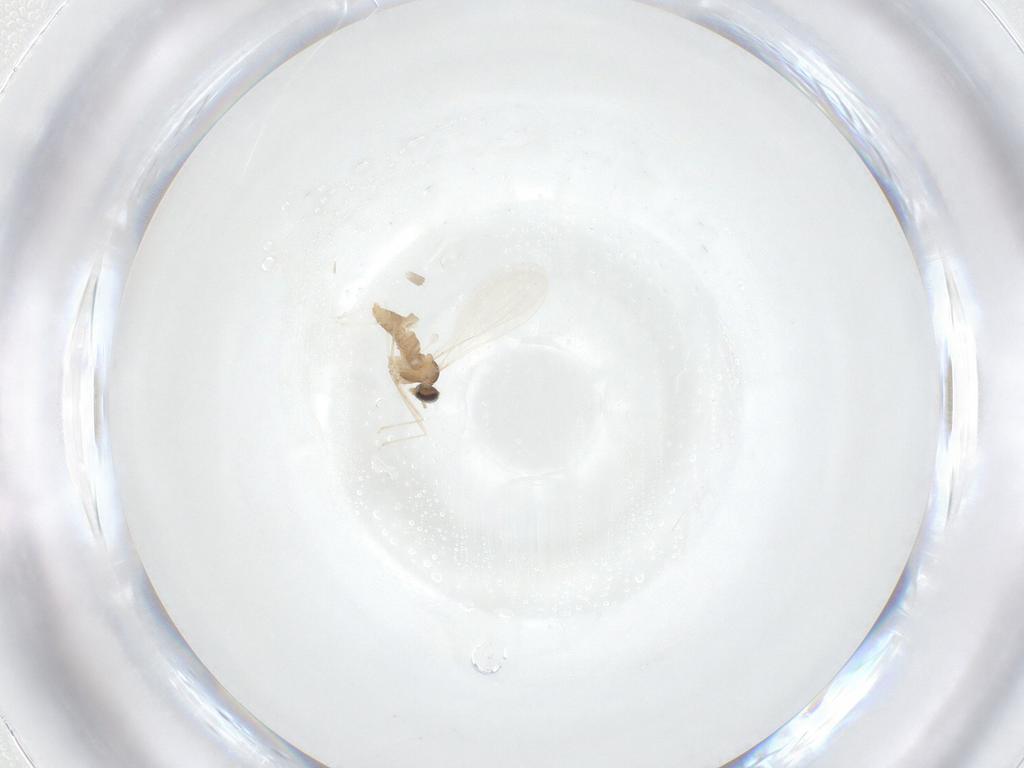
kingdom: Animalia
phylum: Arthropoda
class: Insecta
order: Diptera
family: Cecidomyiidae
